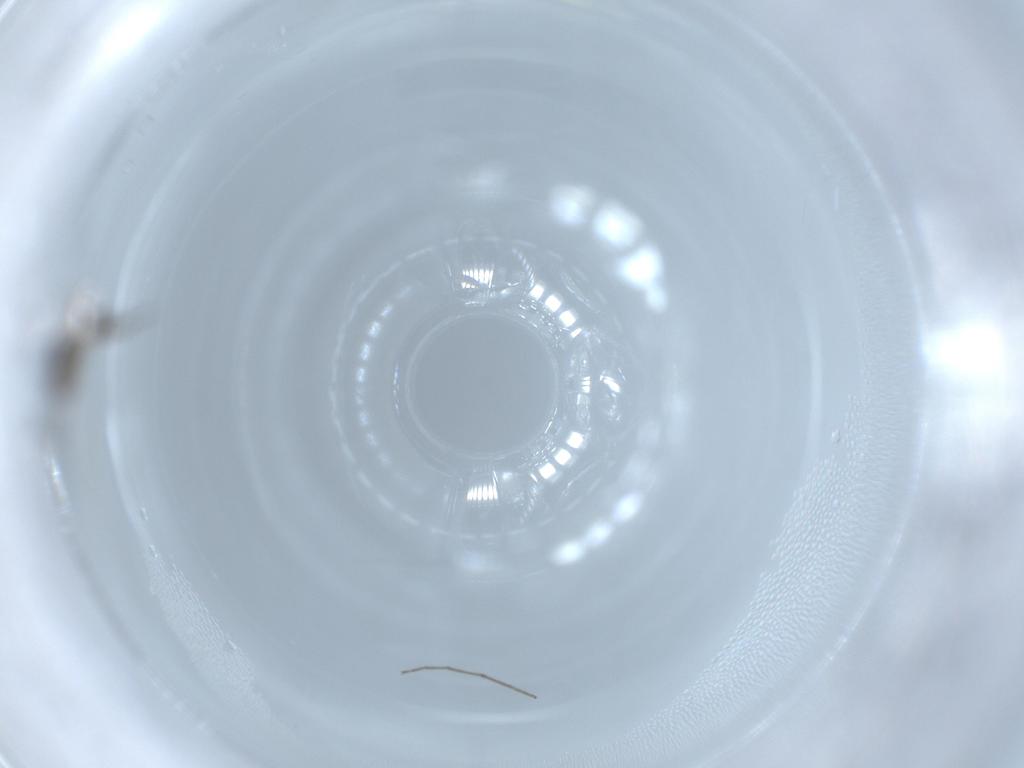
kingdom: Animalia
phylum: Arthropoda
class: Insecta
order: Diptera
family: Chironomidae
